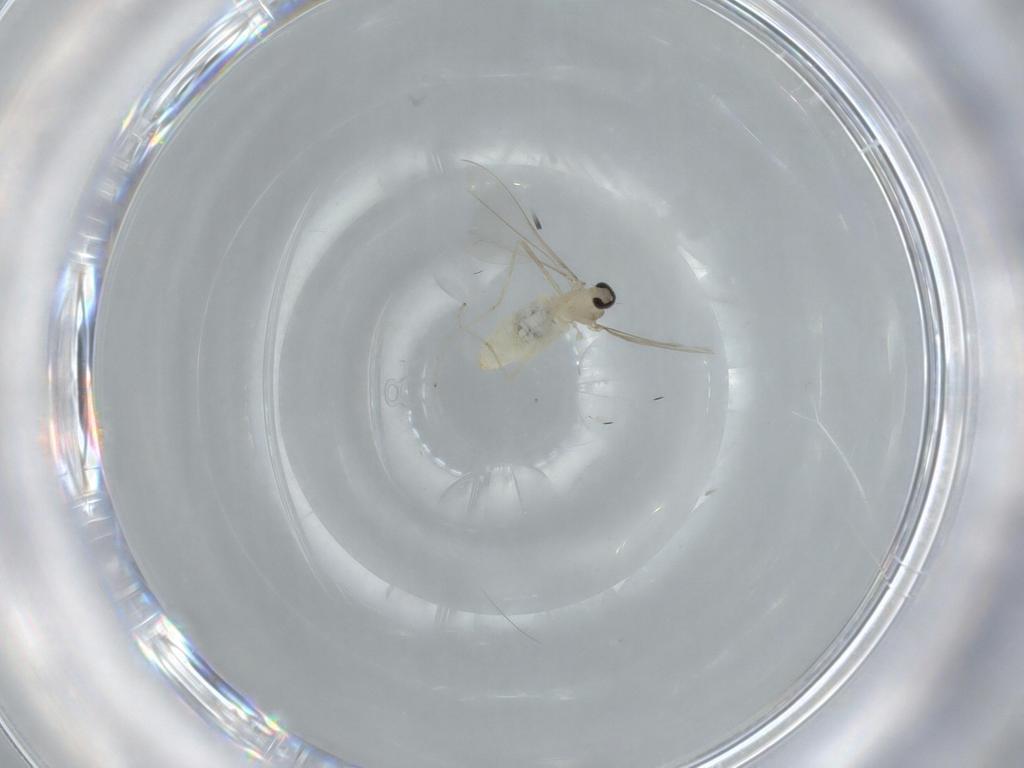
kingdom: Animalia
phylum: Arthropoda
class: Insecta
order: Diptera
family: Cecidomyiidae
